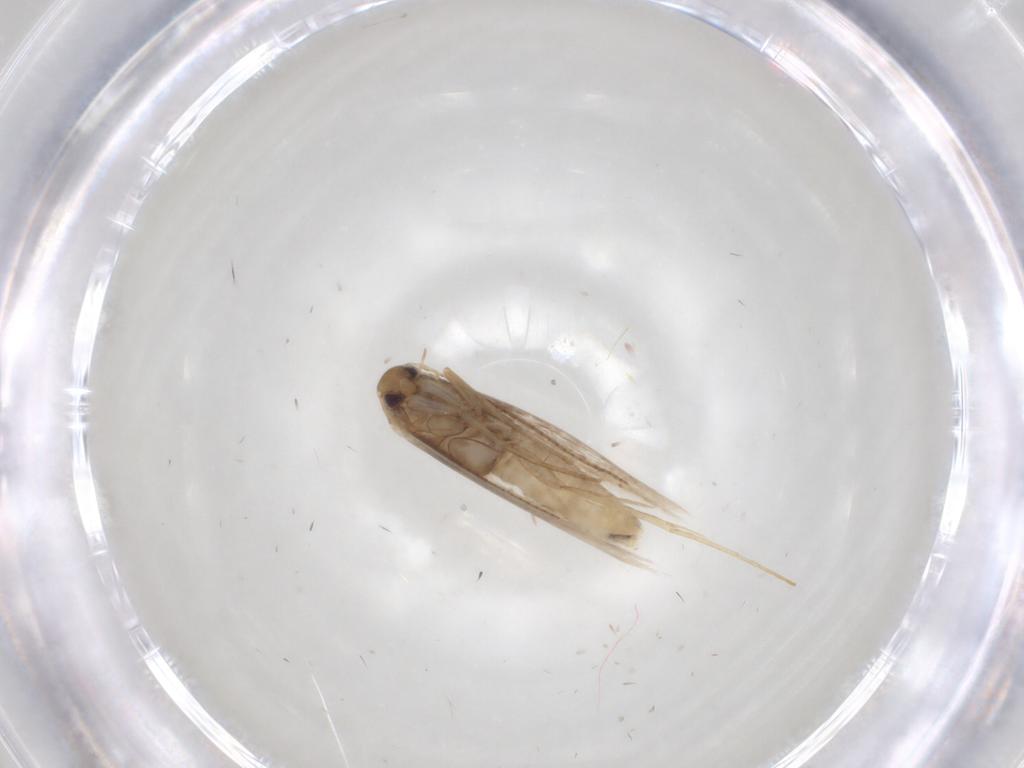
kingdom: Animalia
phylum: Arthropoda
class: Insecta
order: Lepidoptera
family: Gracillariidae
